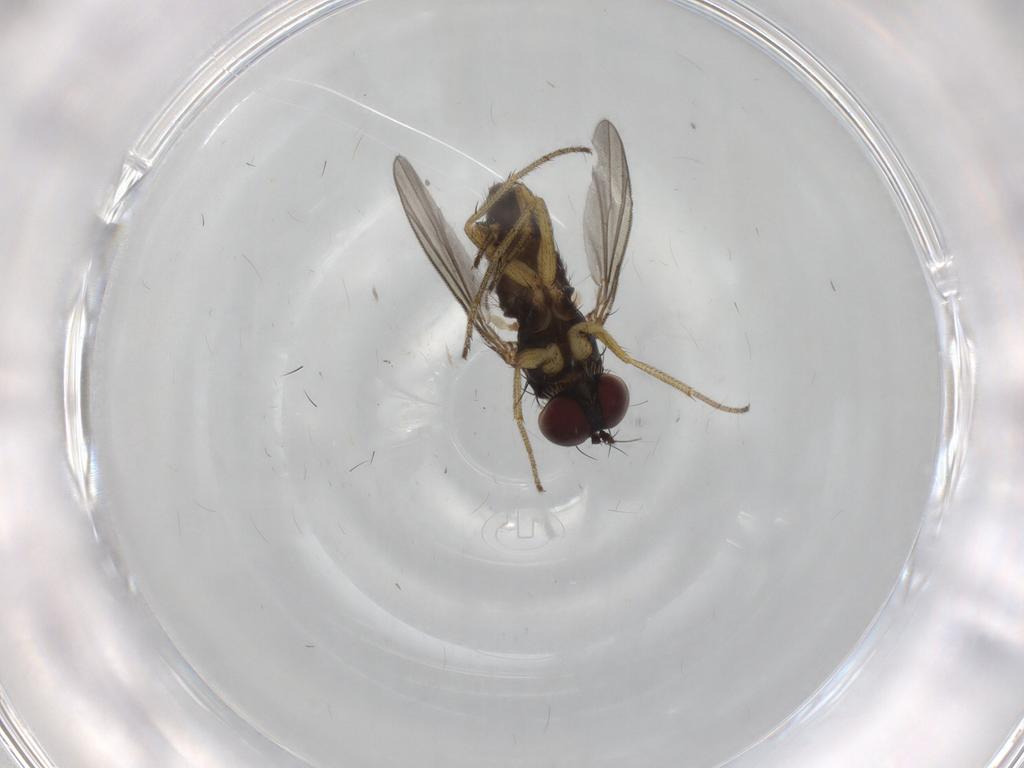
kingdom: Animalia
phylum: Arthropoda
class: Insecta
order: Diptera
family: Dolichopodidae
